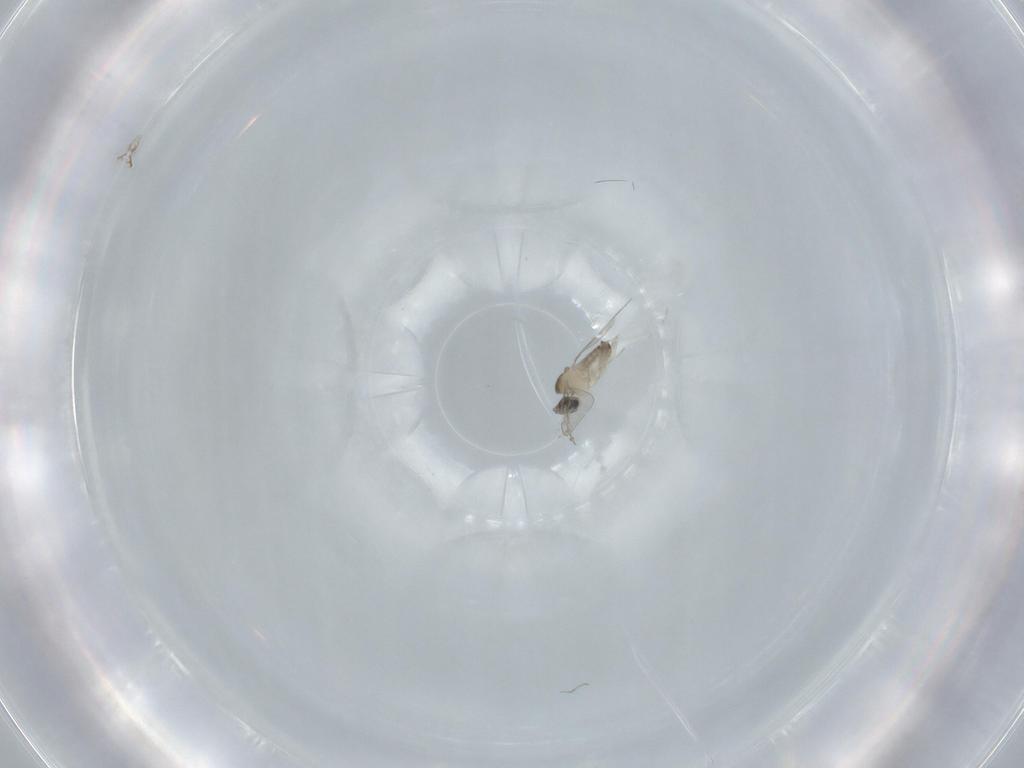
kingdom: Animalia
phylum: Arthropoda
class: Insecta
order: Diptera
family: Cecidomyiidae
